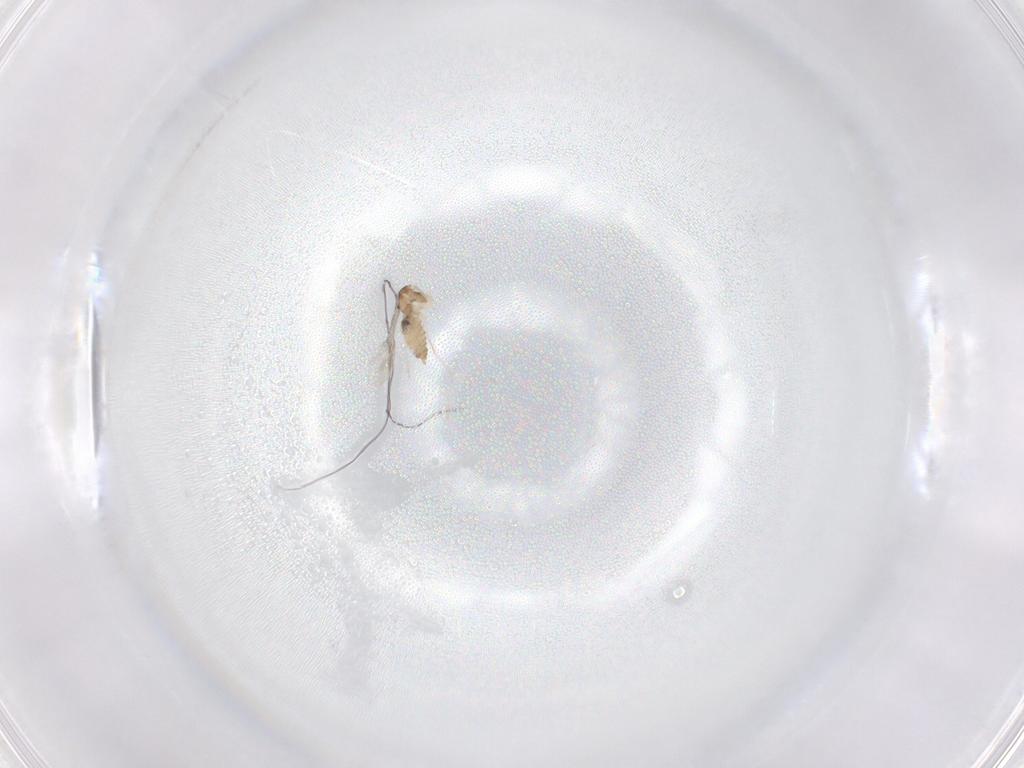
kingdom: Animalia
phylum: Arthropoda
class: Insecta
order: Diptera
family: Cecidomyiidae
